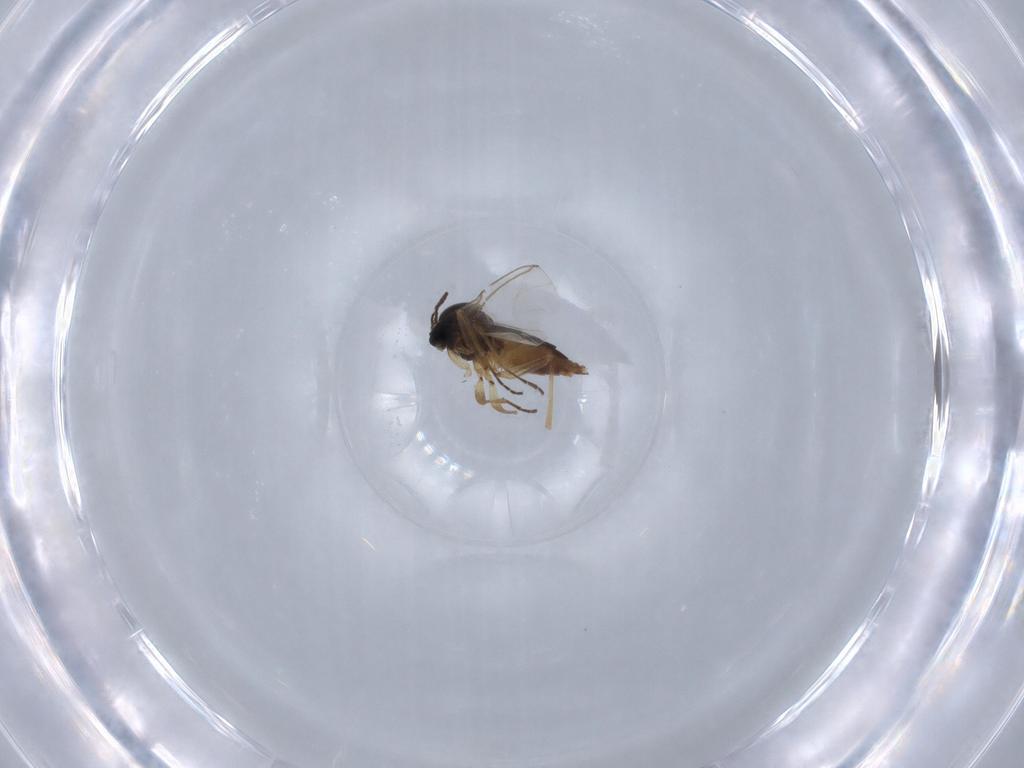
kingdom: Animalia
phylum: Arthropoda
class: Insecta
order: Diptera
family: Sciaridae
